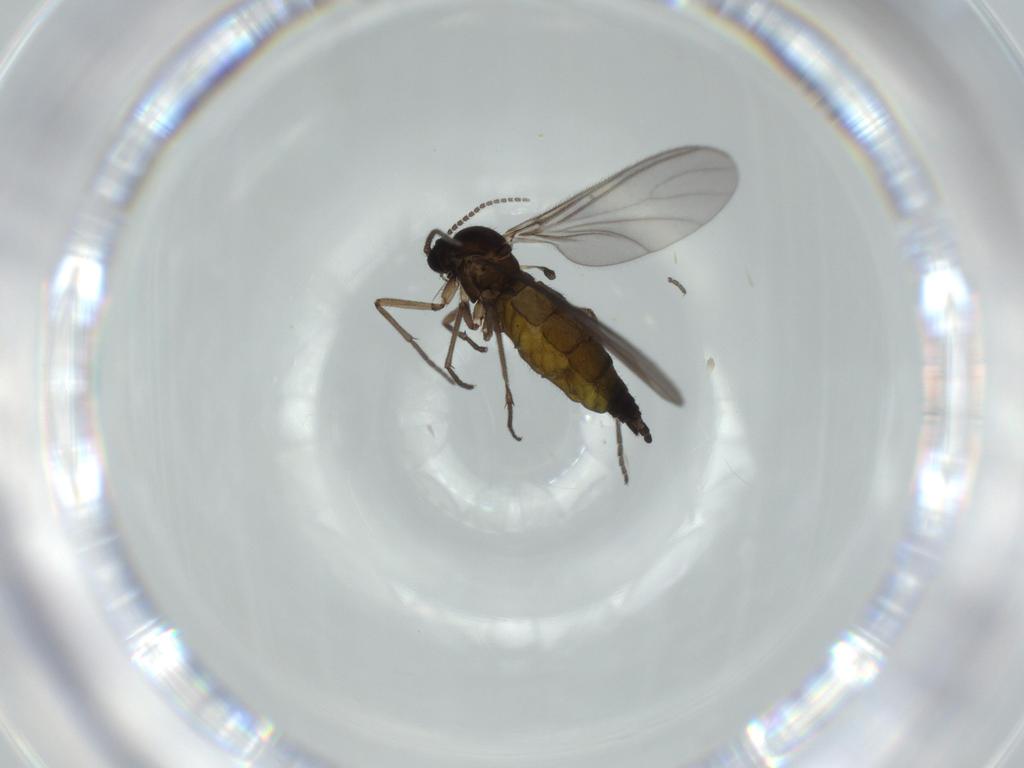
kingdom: Animalia
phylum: Arthropoda
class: Insecta
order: Diptera
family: Sciaridae
